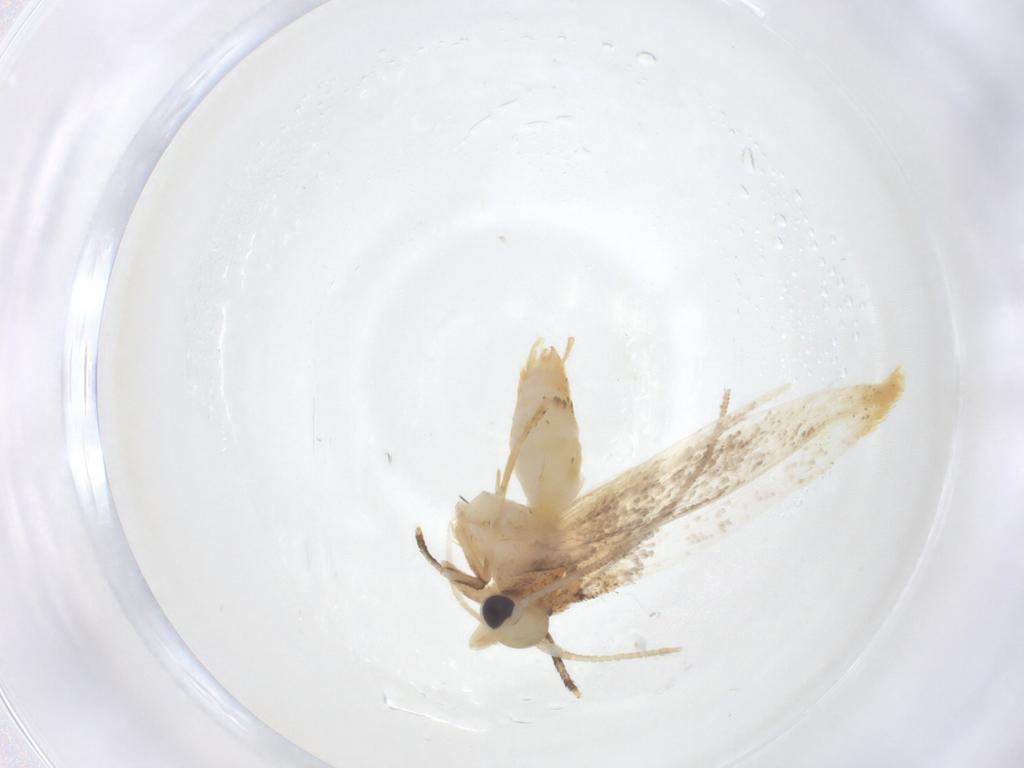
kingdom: Animalia
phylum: Arthropoda
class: Insecta
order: Lepidoptera
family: Erebidae
